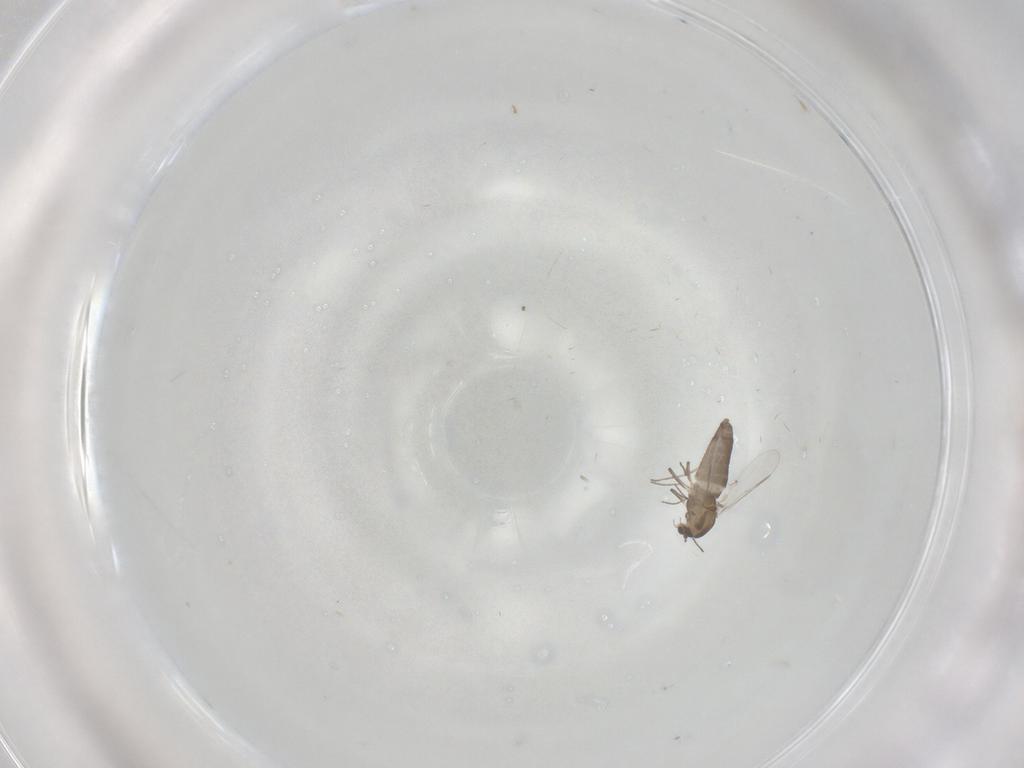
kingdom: Animalia
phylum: Arthropoda
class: Insecta
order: Diptera
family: Chironomidae
